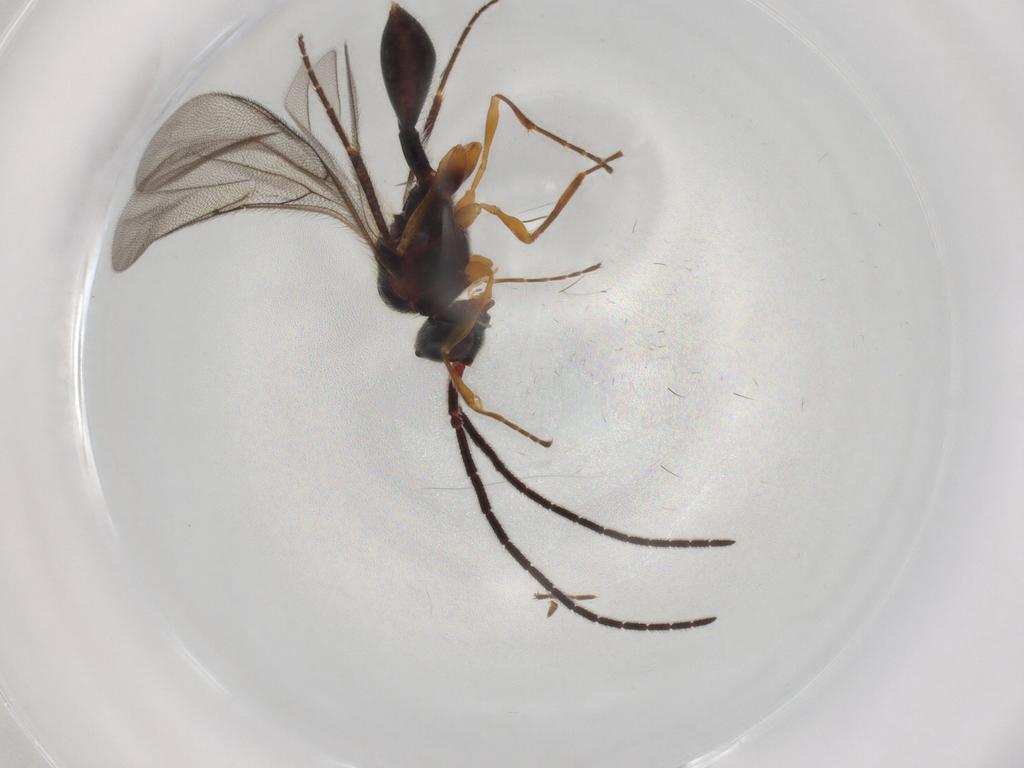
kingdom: Animalia
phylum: Arthropoda
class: Insecta
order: Hymenoptera
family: Diapriidae
